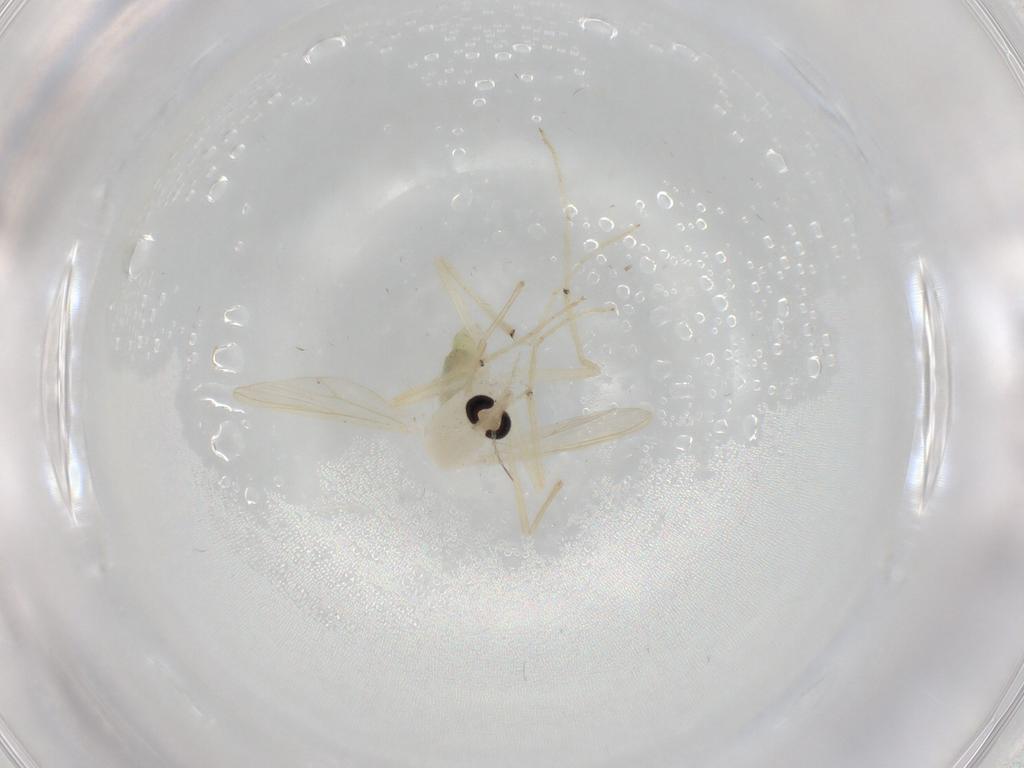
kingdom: Animalia
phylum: Arthropoda
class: Insecta
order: Diptera
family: Chironomidae
